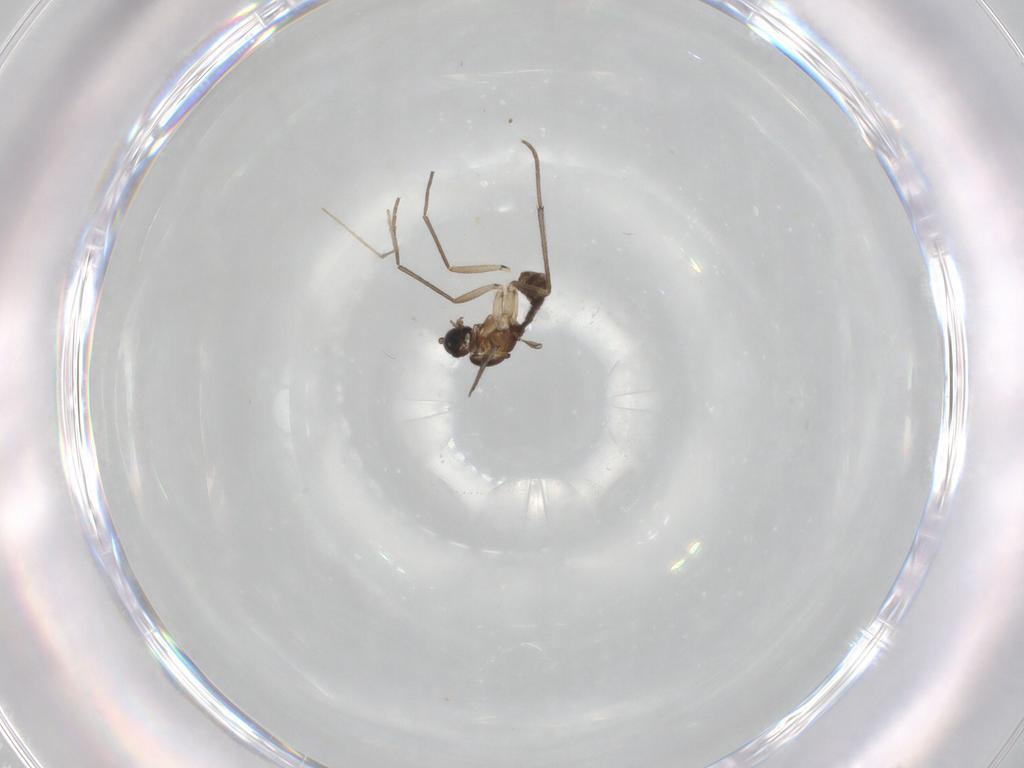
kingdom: Animalia
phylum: Arthropoda
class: Insecta
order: Diptera
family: Sciaridae
